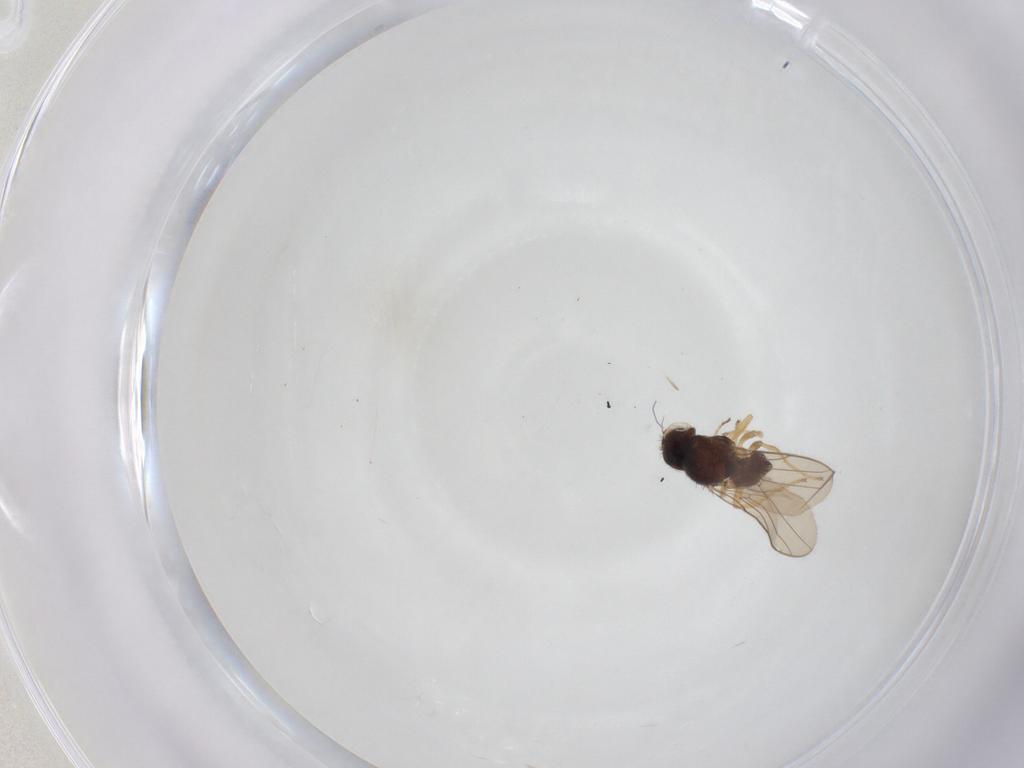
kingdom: Animalia
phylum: Arthropoda
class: Insecta
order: Diptera
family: Chloropidae
